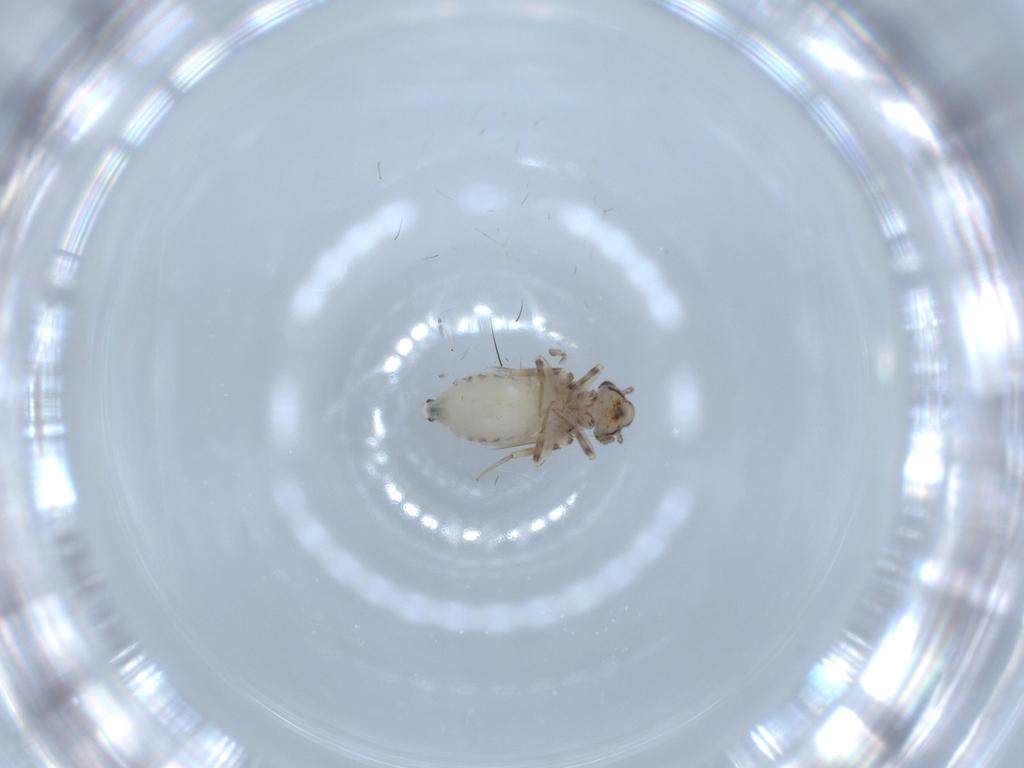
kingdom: Animalia
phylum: Arthropoda
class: Insecta
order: Psocodea
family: Lepidopsocidae
